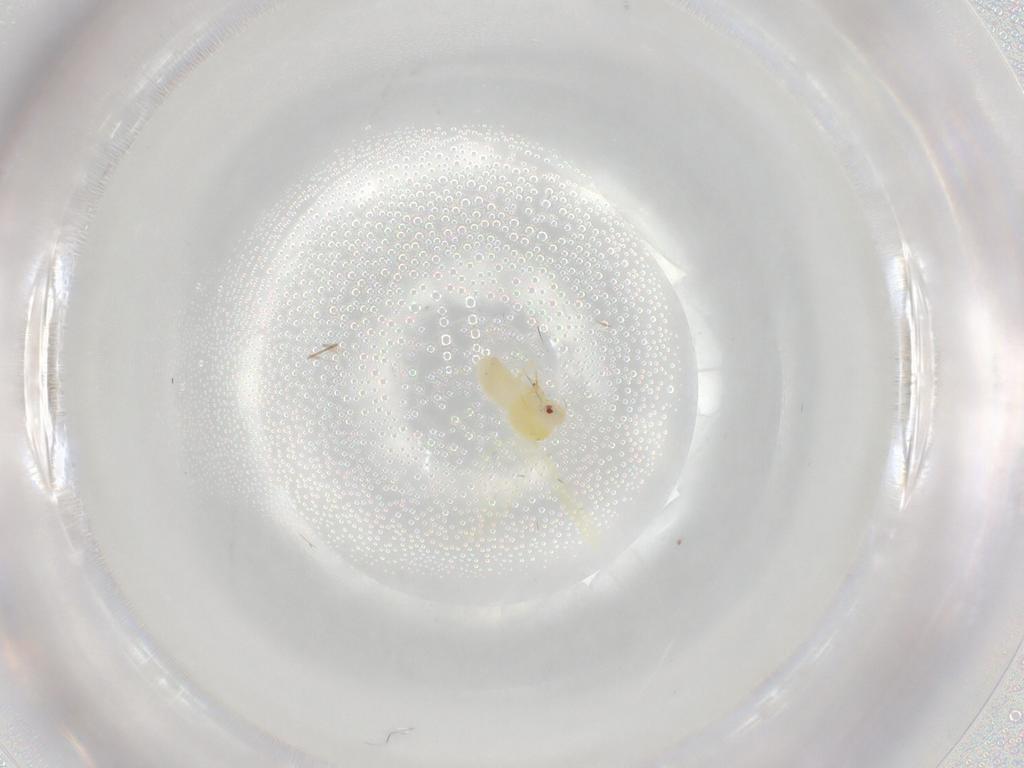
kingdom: Animalia
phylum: Arthropoda
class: Insecta
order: Hemiptera
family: Aleyrodidae
